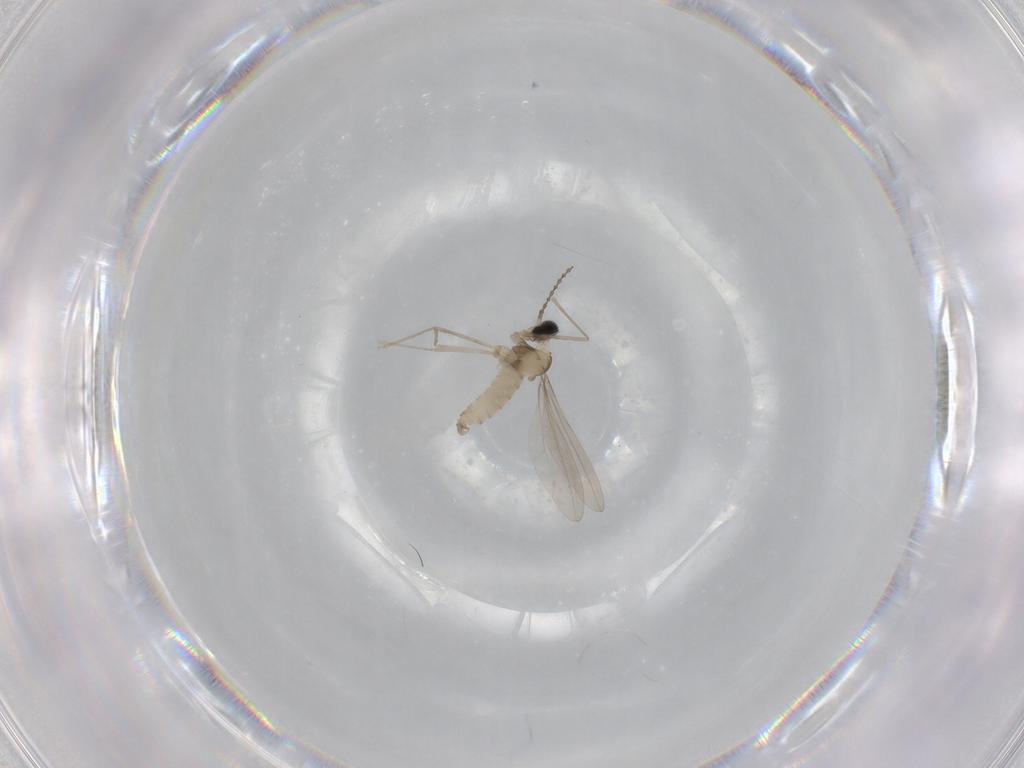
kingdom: Animalia
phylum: Arthropoda
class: Insecta
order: Diptera
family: Cecidomyiidae
